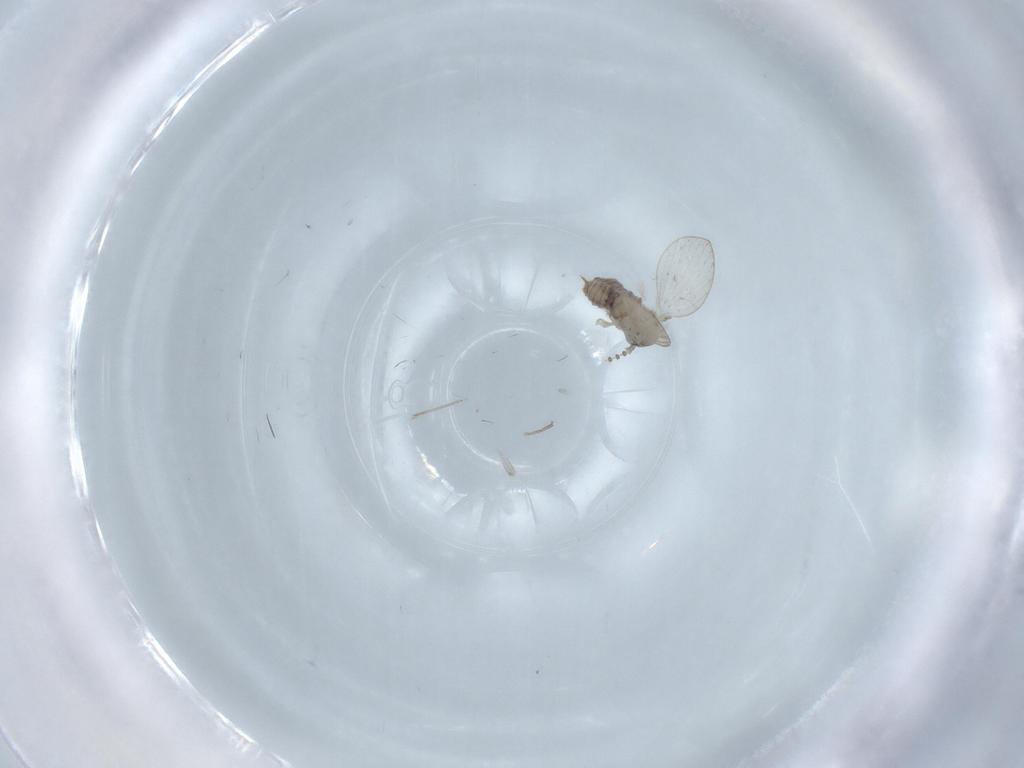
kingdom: Animalia
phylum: Arthropoda
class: Insecta
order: Diptera
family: Psychodidae
